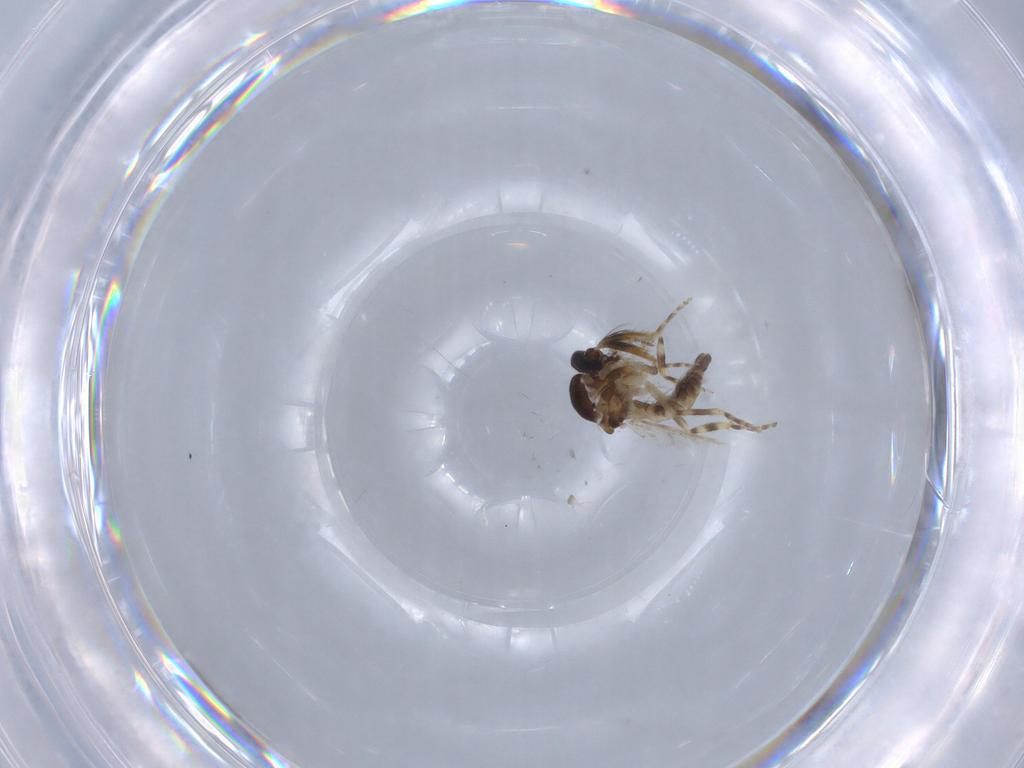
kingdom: Animalia
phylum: Arthropoda
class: Insecta
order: Diptera
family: Ceratopogonidae
